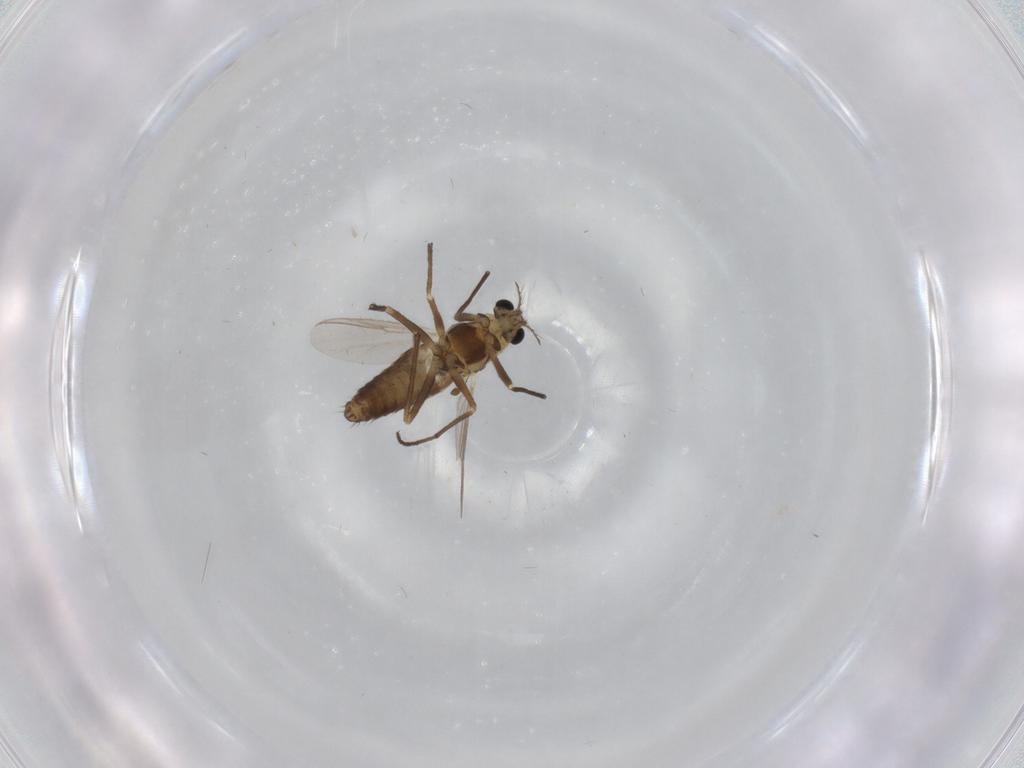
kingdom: Animalia
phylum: Arthropoda
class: Insecta
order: Diptera
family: Chironomidae
